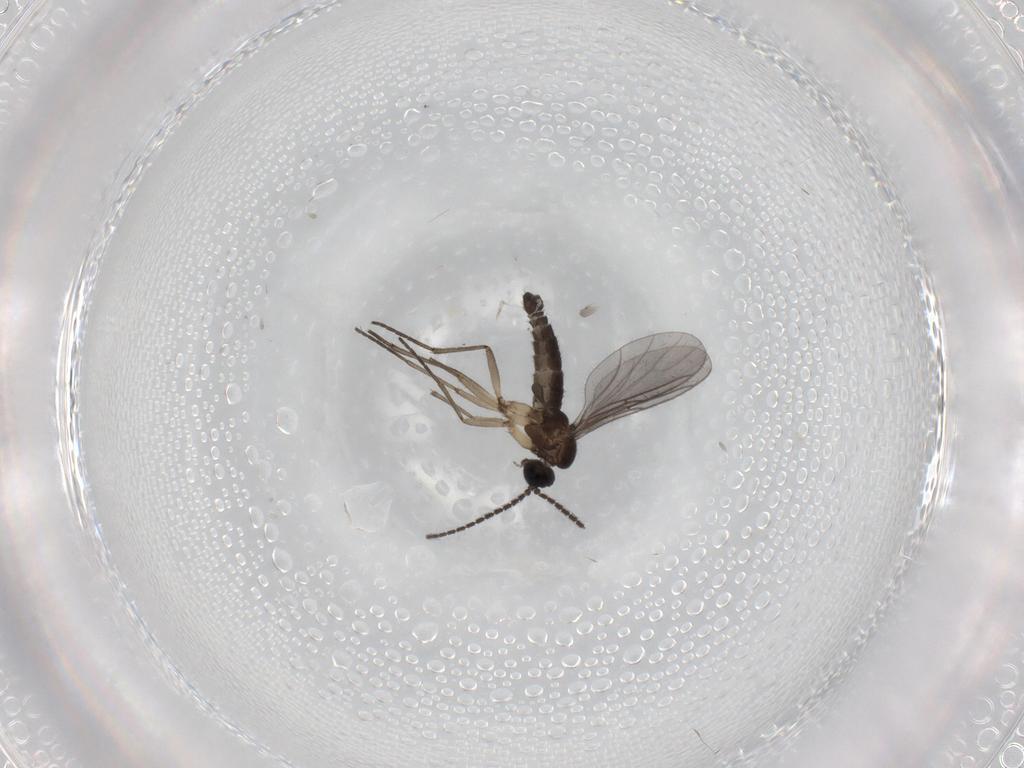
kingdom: Animalia
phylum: Arthropoda
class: Insecta
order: Diptera
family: Sciaridae
